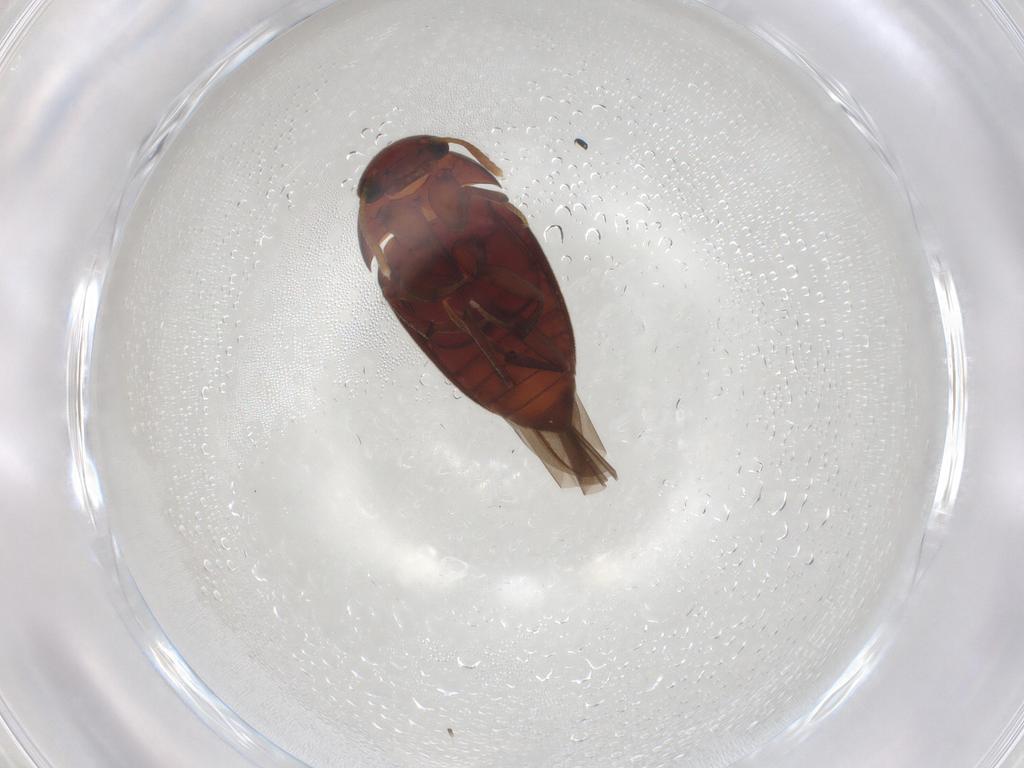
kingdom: Animalia
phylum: Arthropoda
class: Insecta
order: Coleoptera
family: Leiodidae
